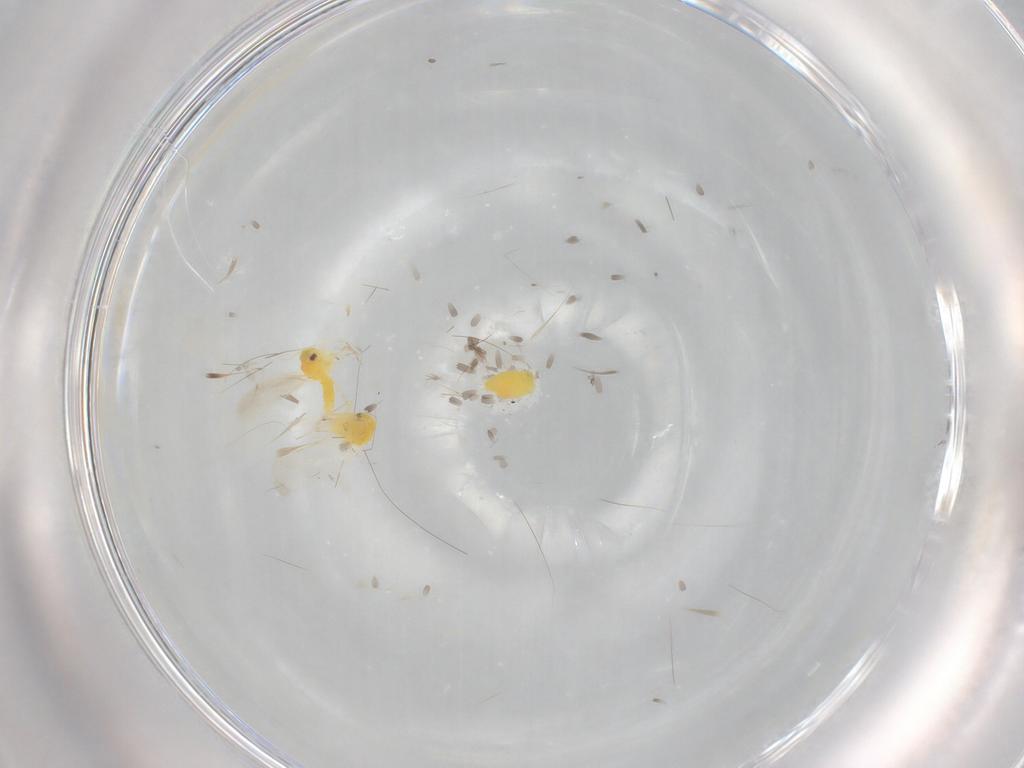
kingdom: Animalia
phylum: Arthropoda
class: Insecta
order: Hemiptera
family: Aleyrodidae
